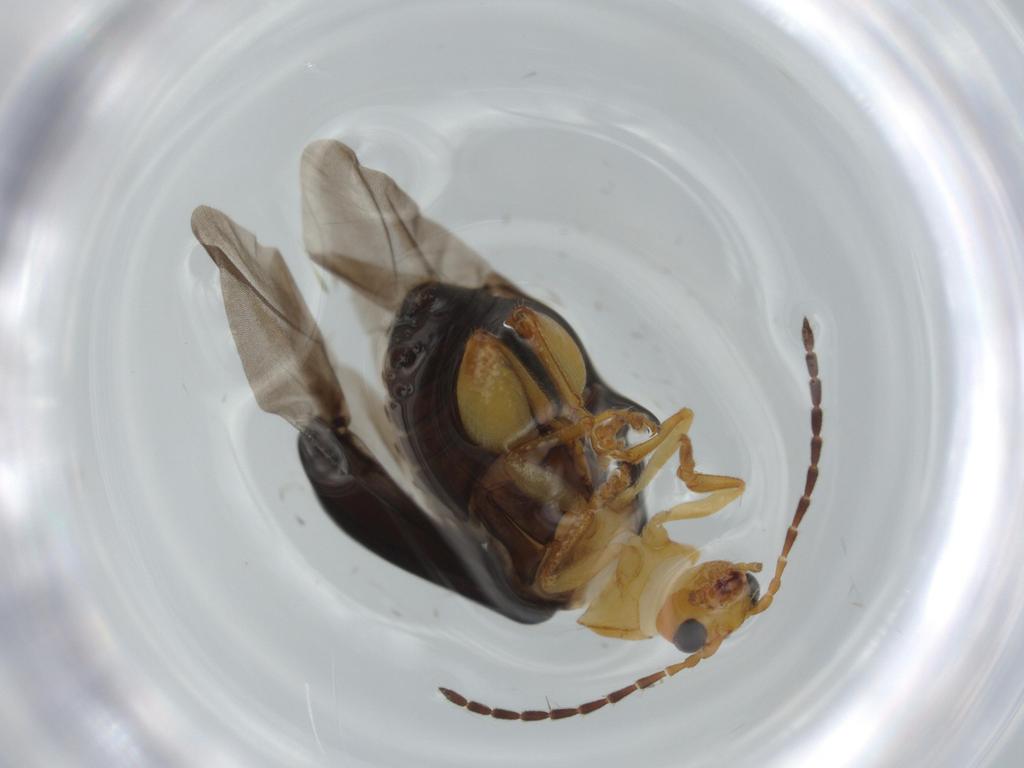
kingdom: Animalia
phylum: Arthropoda
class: Insecta
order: Coleoptera
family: Chrysomelidae
